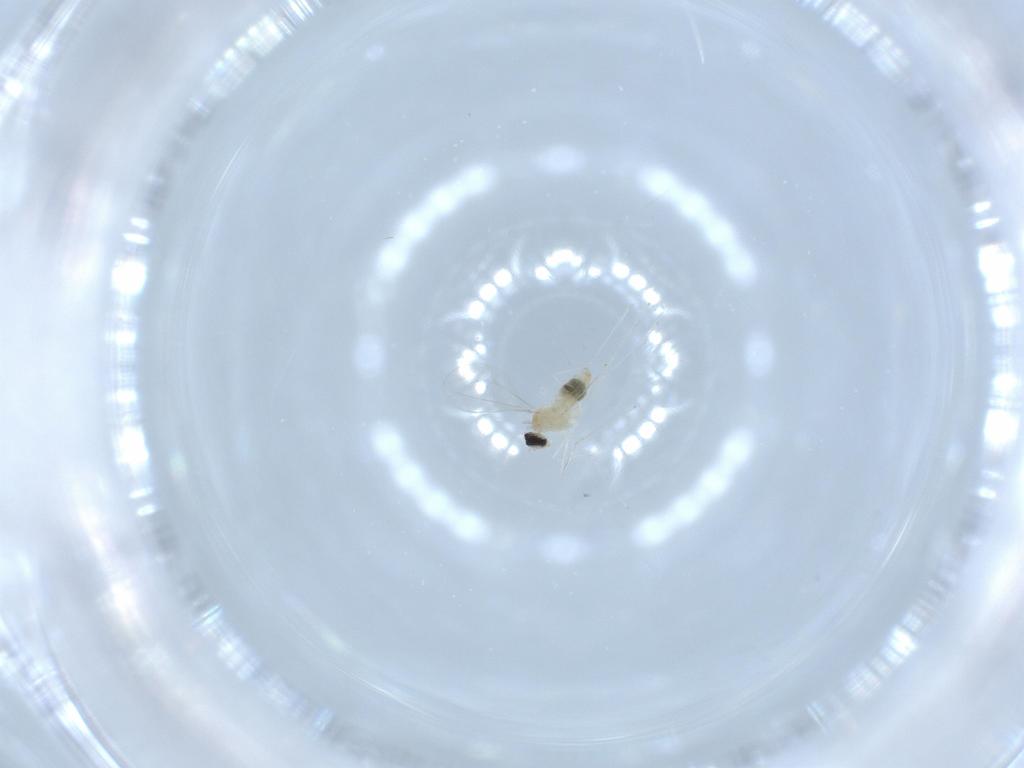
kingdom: Animalia
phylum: Arthropoda
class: Insecta
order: Diptera
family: Cecidomyiidae
